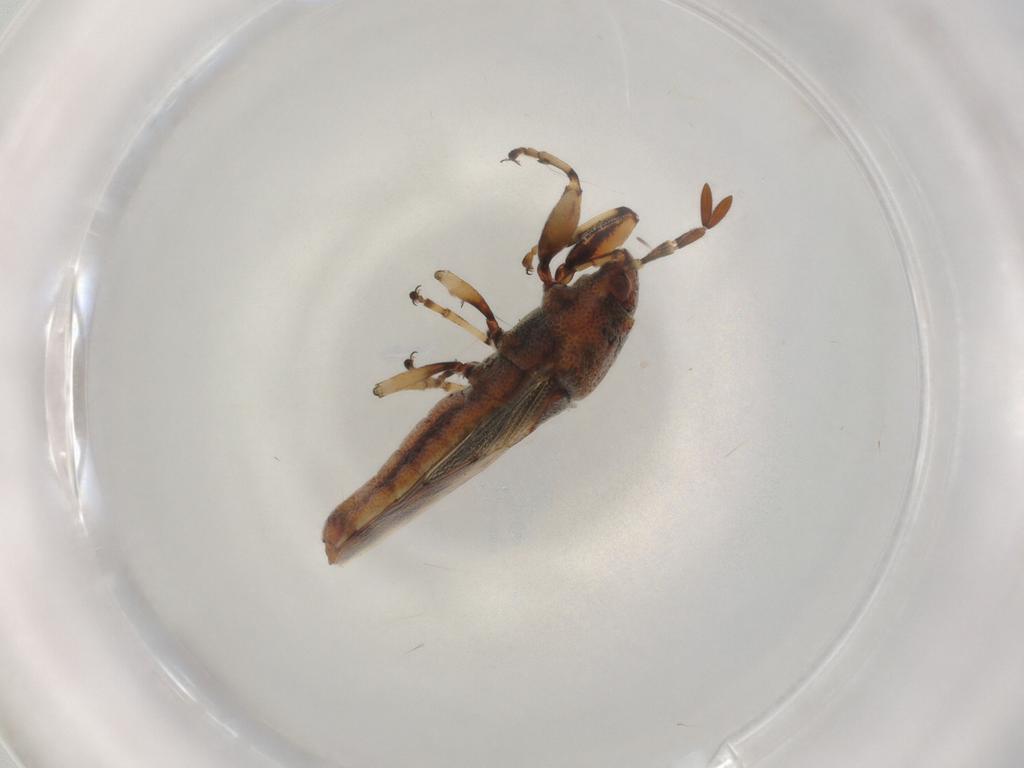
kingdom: Animalia
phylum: Arthropoda
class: Insecta
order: Hemiptera
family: Pachygronthidae
